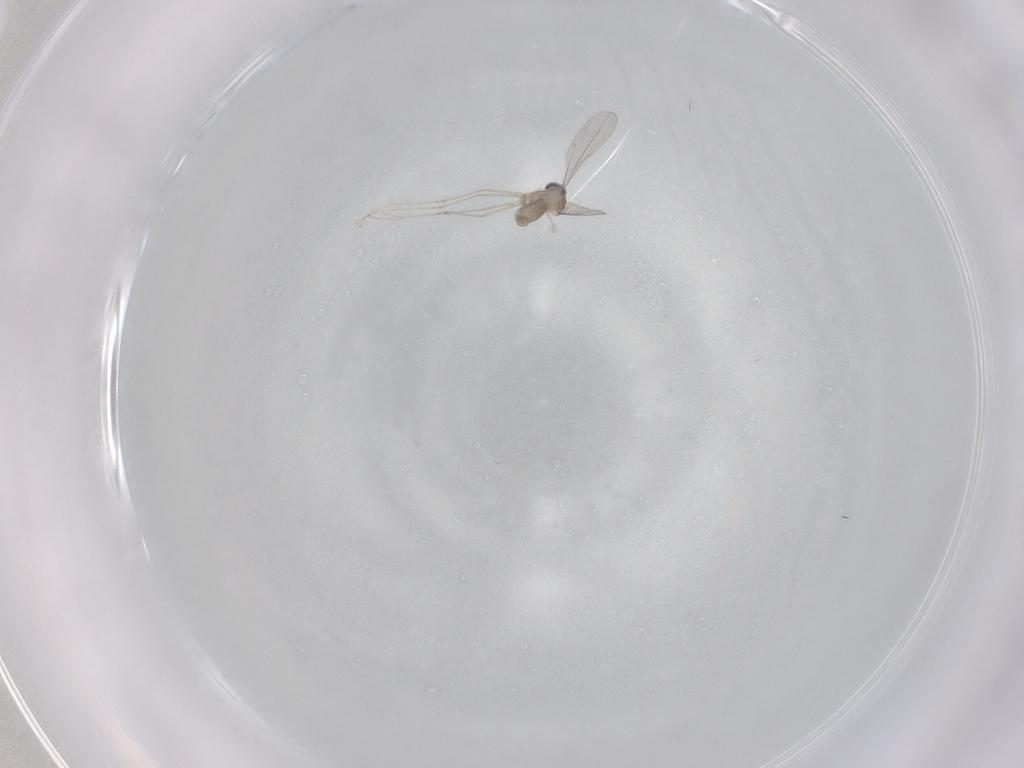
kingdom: Animalia
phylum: Arthropoda
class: Insecta
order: Diptera
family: Cecidomyiidae
